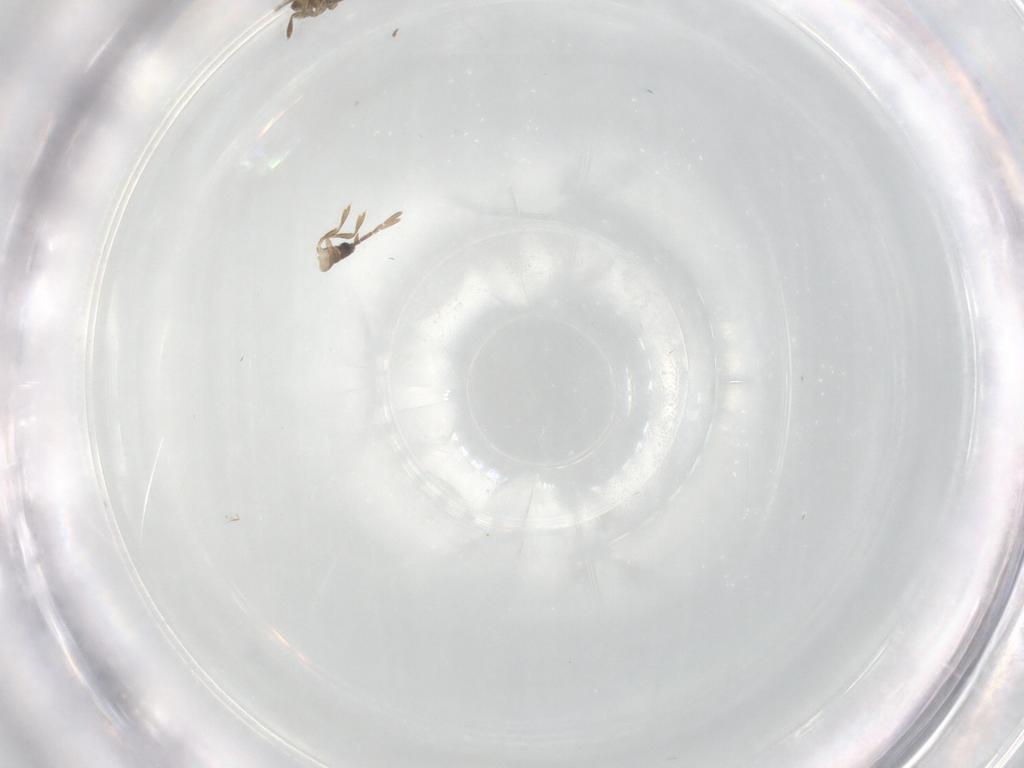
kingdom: Animalia
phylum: Arthropoda
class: Insecta
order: Hemiptera
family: Enicocephalidae
